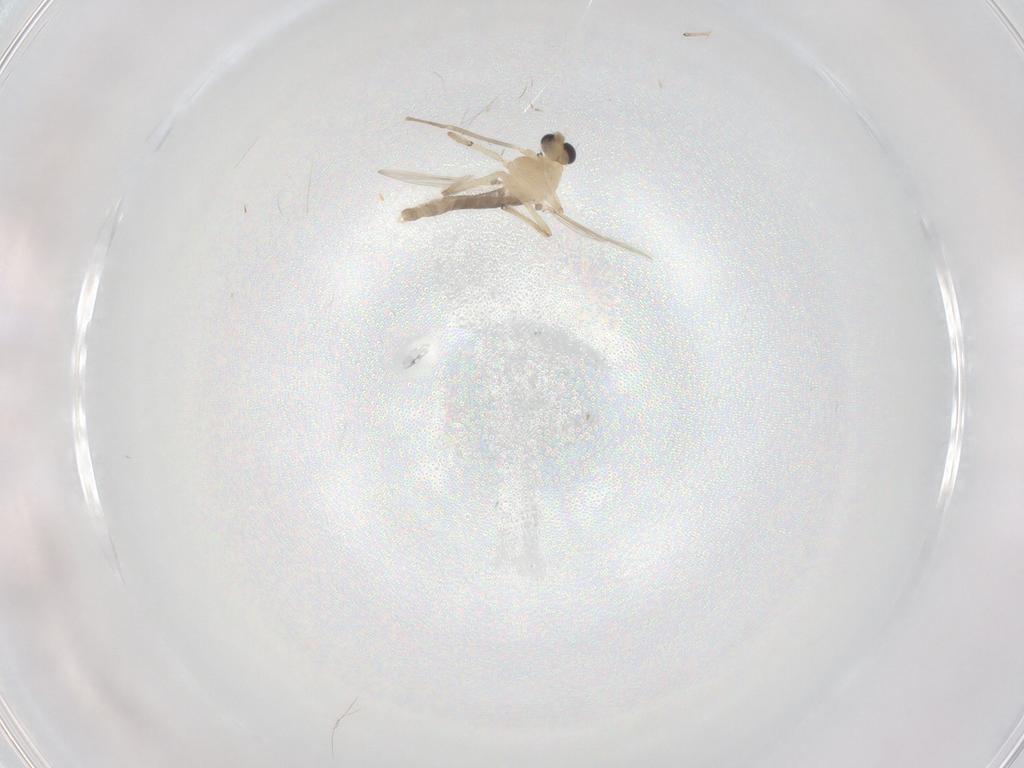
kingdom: Animalia
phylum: Arthropoda
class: Insecta
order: Diptera
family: Chironomidae
